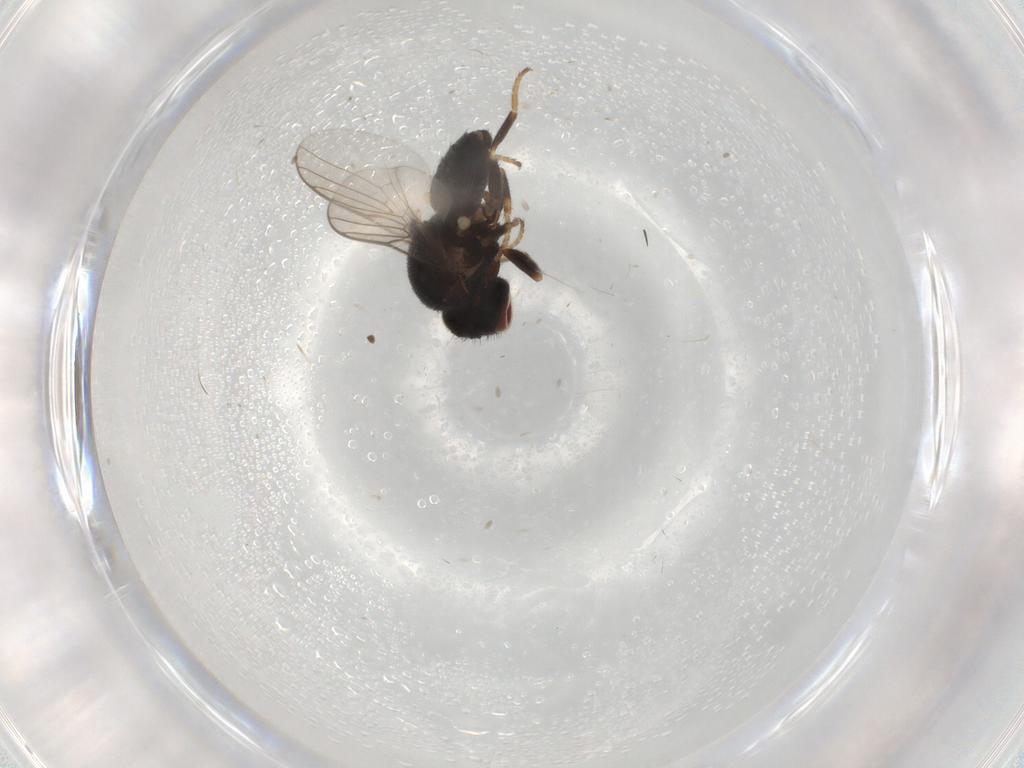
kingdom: Animalia
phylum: Arthropoda
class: Insecta
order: Diptera
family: Chloropidae
